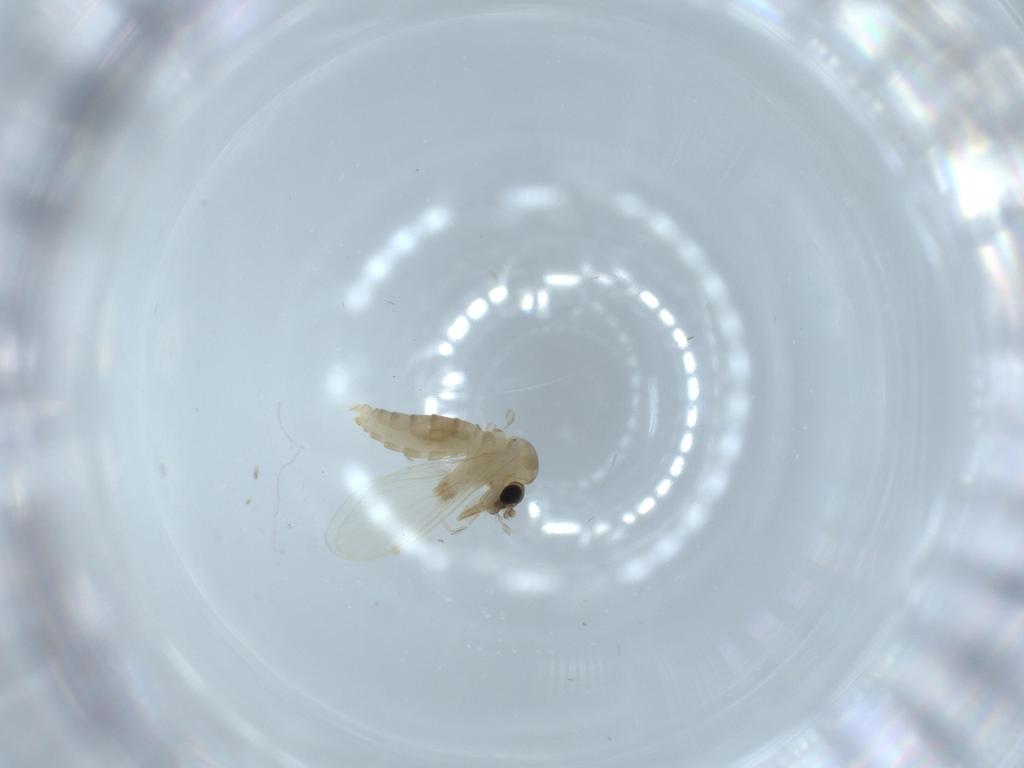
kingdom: Animalia
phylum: Arthropoda
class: Insecta
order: Diptera
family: Psychodidae
